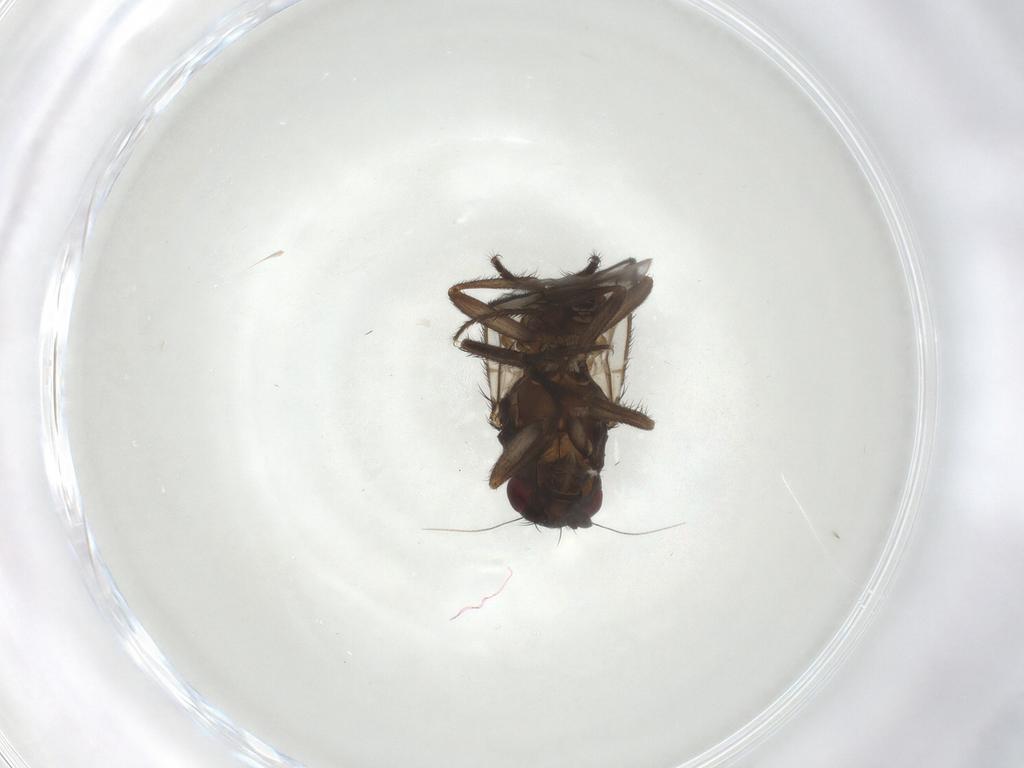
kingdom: Animalia
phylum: Arthropoda
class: Insecta
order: Diptera
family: Sphaeroceridae
